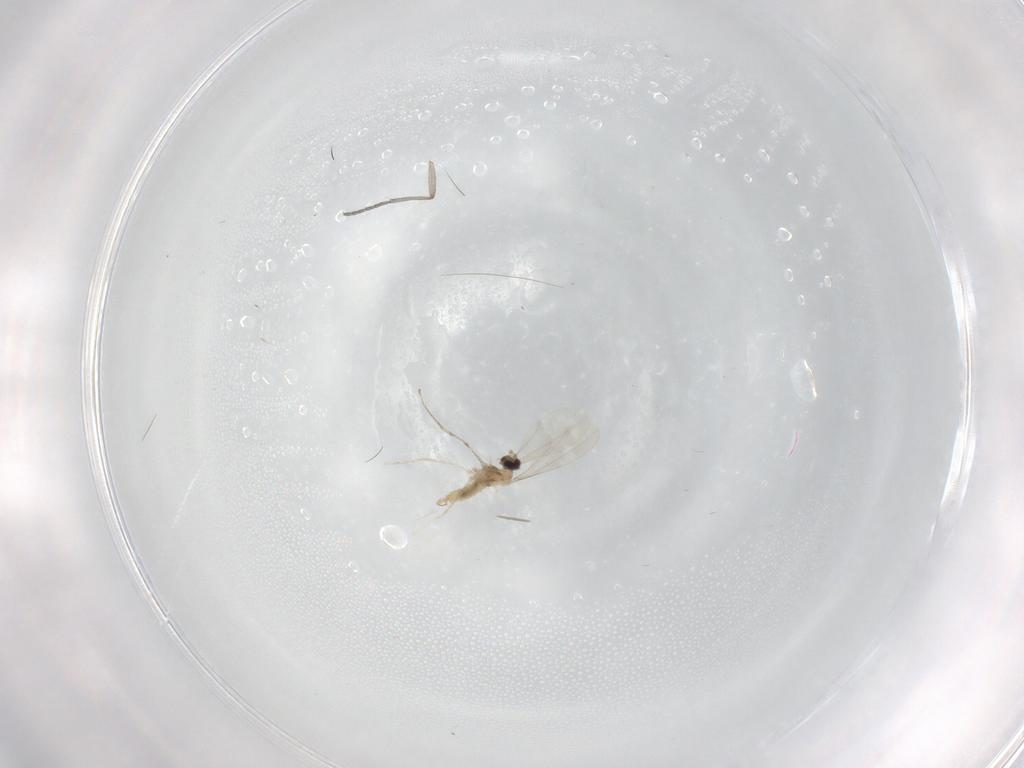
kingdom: Animalia
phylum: Arthropoda
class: Insecta
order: Diptera
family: Sciaridae
